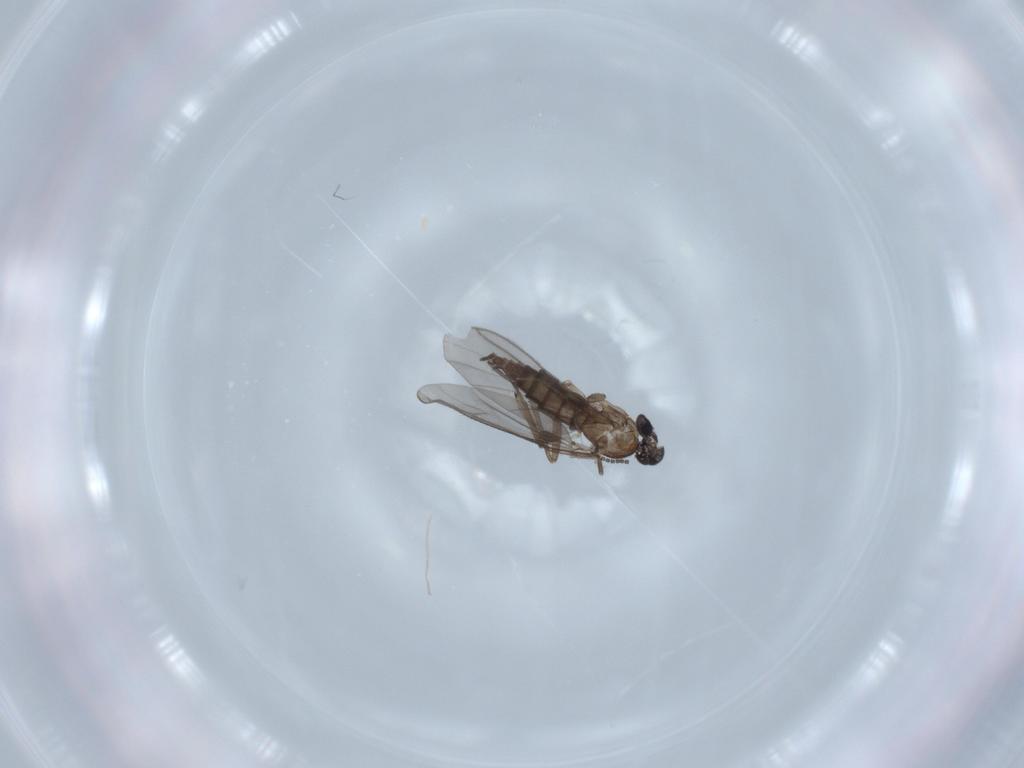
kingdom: Animalia
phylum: Arthropoda
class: Insecta
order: Diptera
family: Sciaridae
